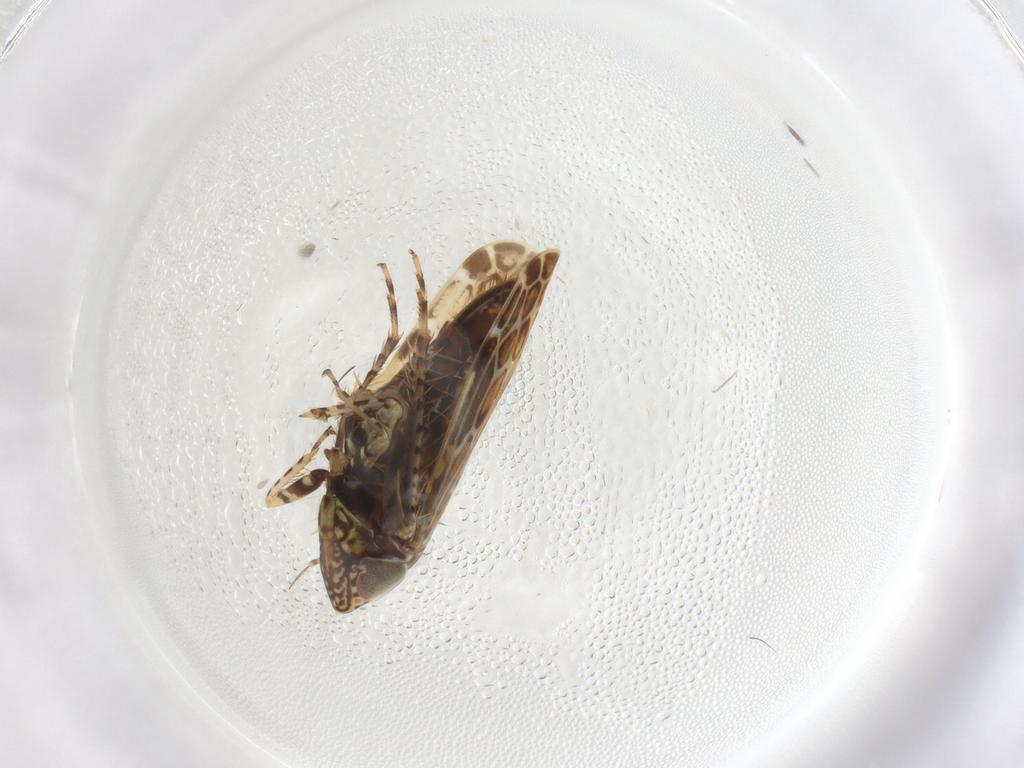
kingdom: Animalia
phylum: Arthropoda
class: Insecta
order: Hemiptera
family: Cicadellidae
